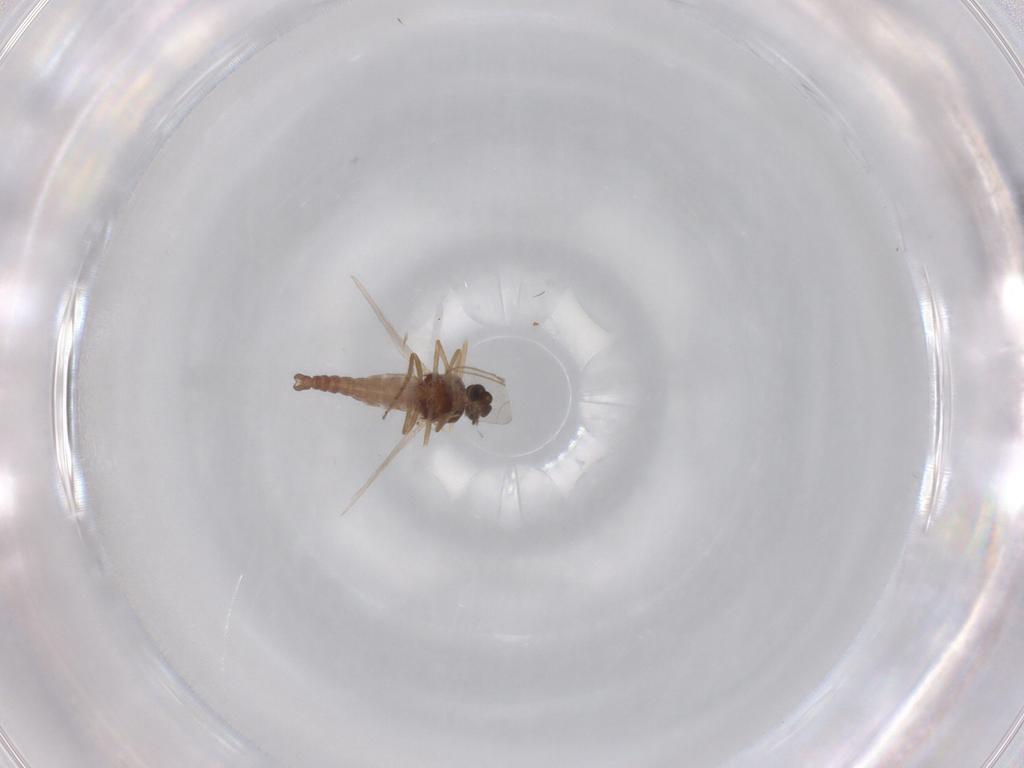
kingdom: Animalia
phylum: Arthropoda
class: Insecta
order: Diptera
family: Ceratopogonidae
